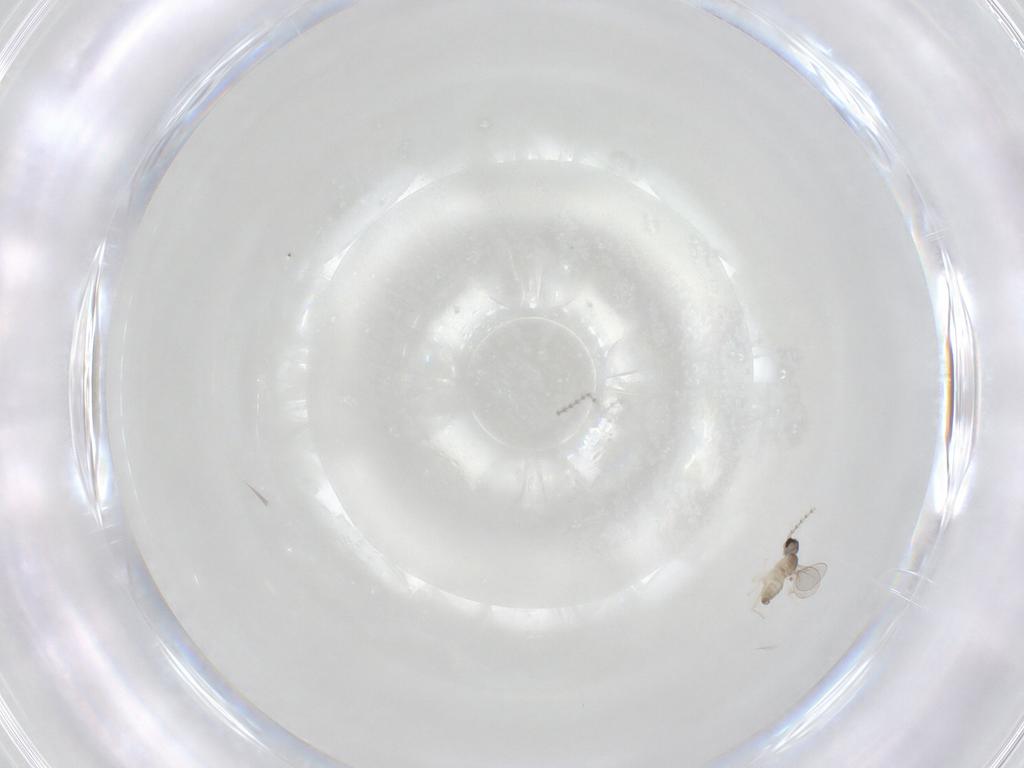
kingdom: Animalia
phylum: Arthropoda
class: Insecta
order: Diptera
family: Cecidomyiidae
